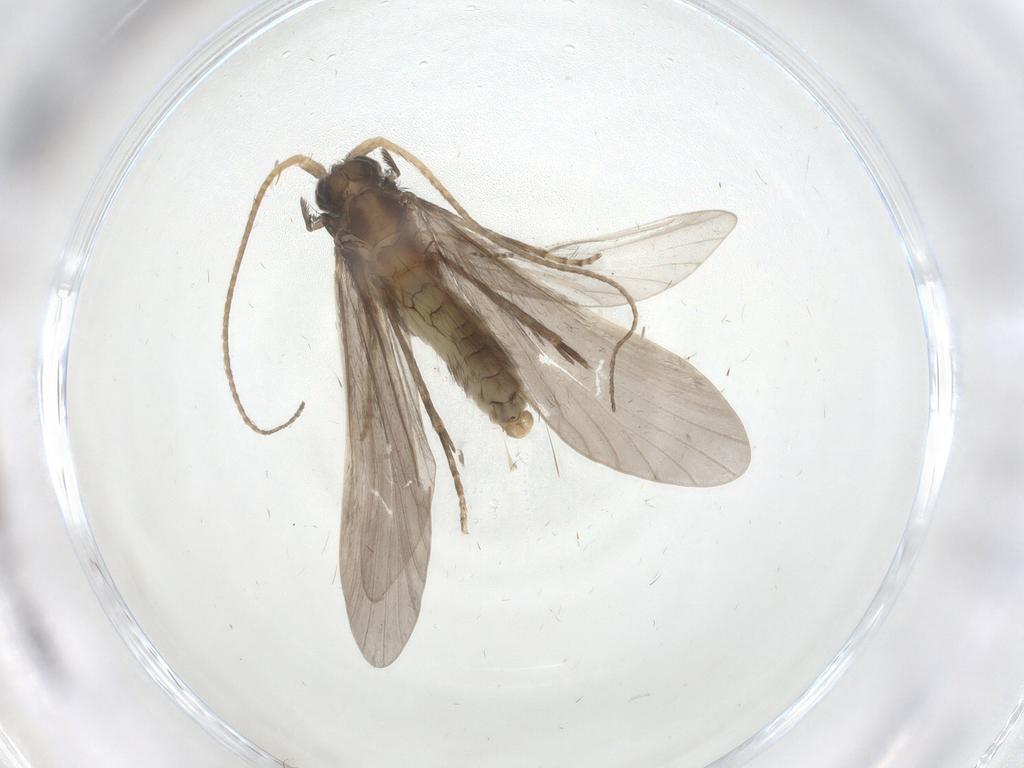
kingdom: Animalia
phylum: Arthropoda
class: Insecta
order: Trichoptera
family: Helicopsychidae
